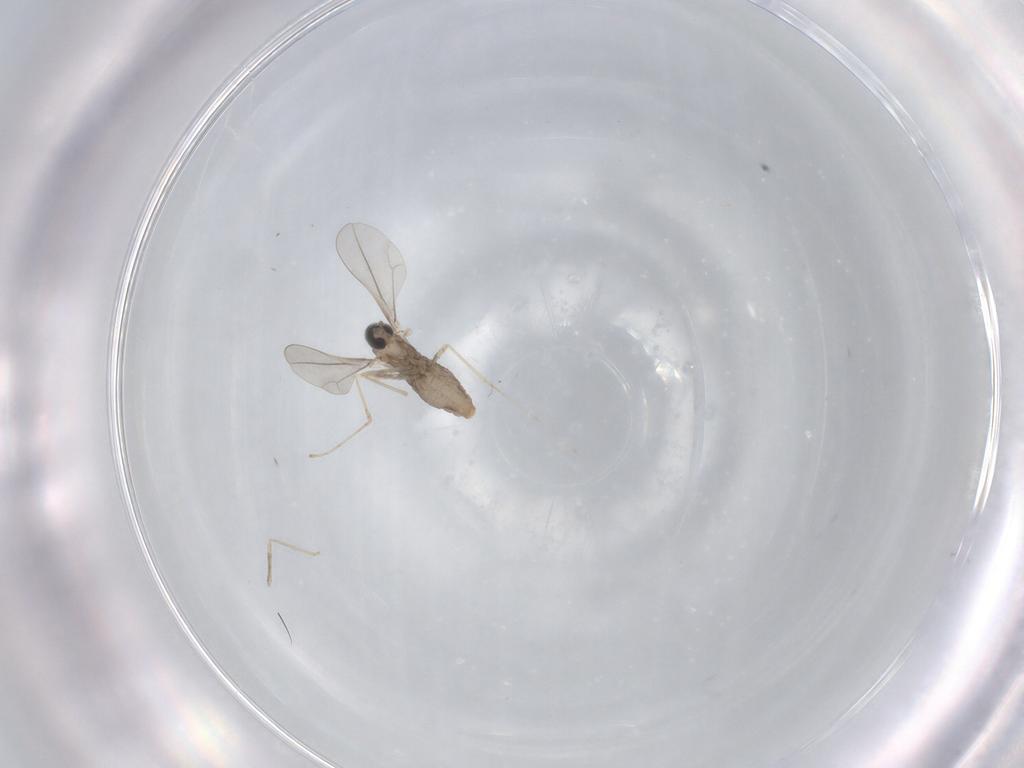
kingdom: Animalia
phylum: Arthropoda
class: Insecta
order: Diptera
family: Cecidomyiidae
